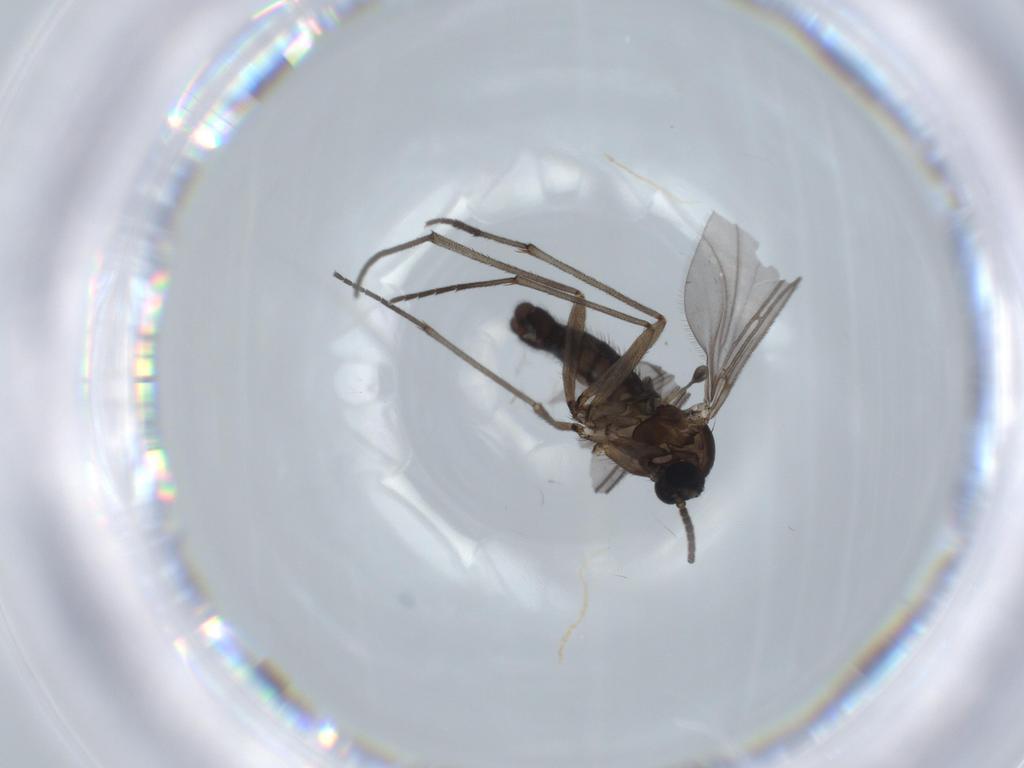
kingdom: Animalia
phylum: Arthropoda
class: Insecta
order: Diptera
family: Sciaridae
